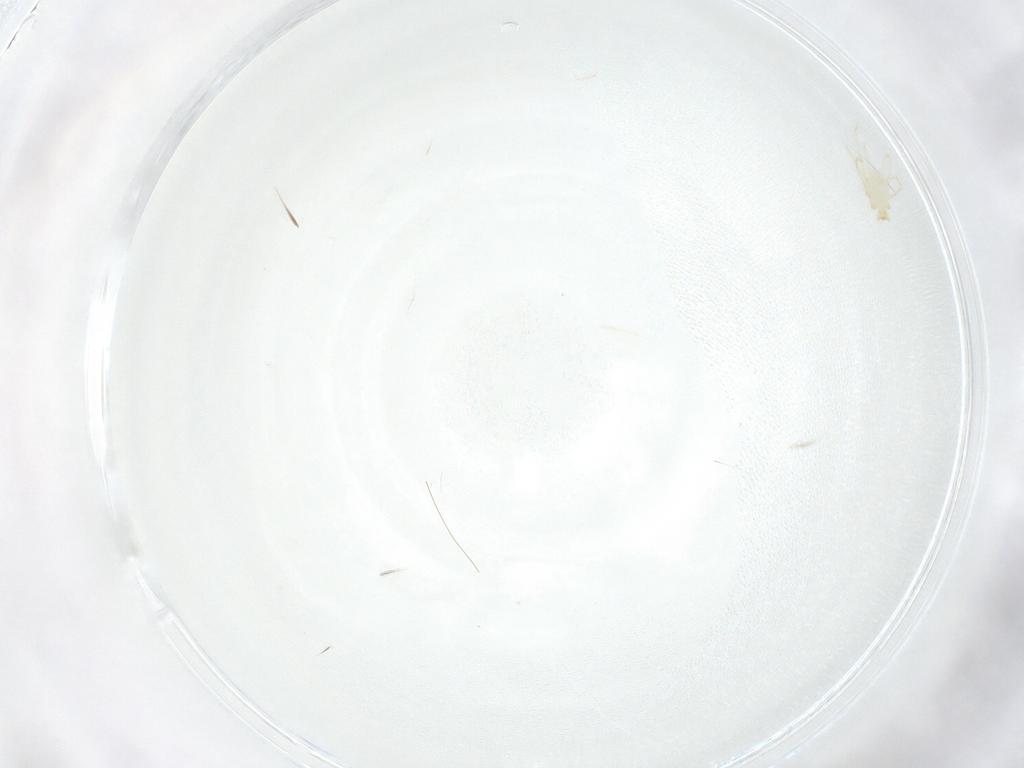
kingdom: Animalia
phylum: Arthropoda
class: Arachnida
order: Trombidiformes
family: Erythraeidae
